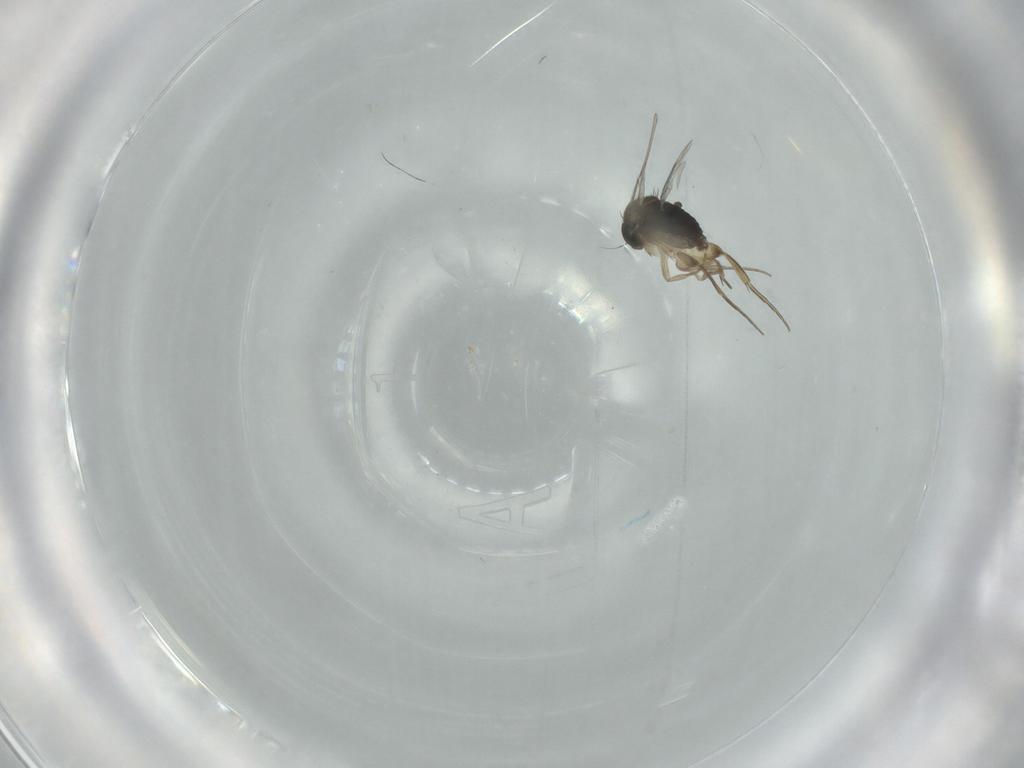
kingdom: Animalia
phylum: Arthropoda
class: Insecta
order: Diptera
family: Phoridae
